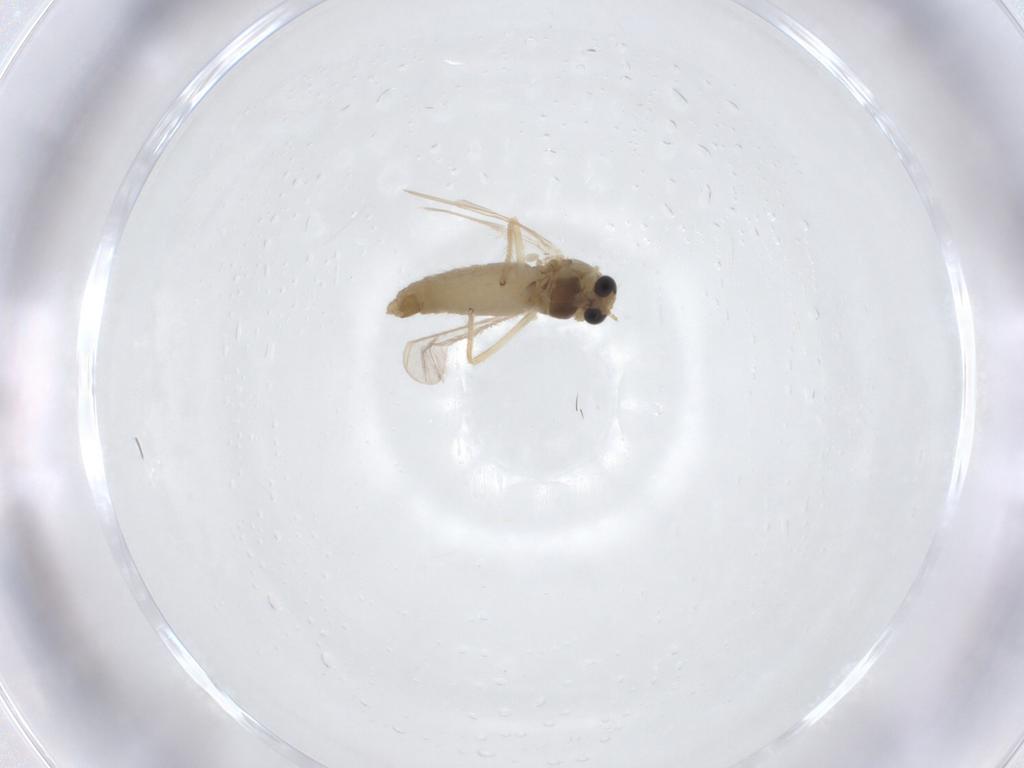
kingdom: Animalia
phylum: Arthropoda
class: Insecta
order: Diptera
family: Chironomidae
